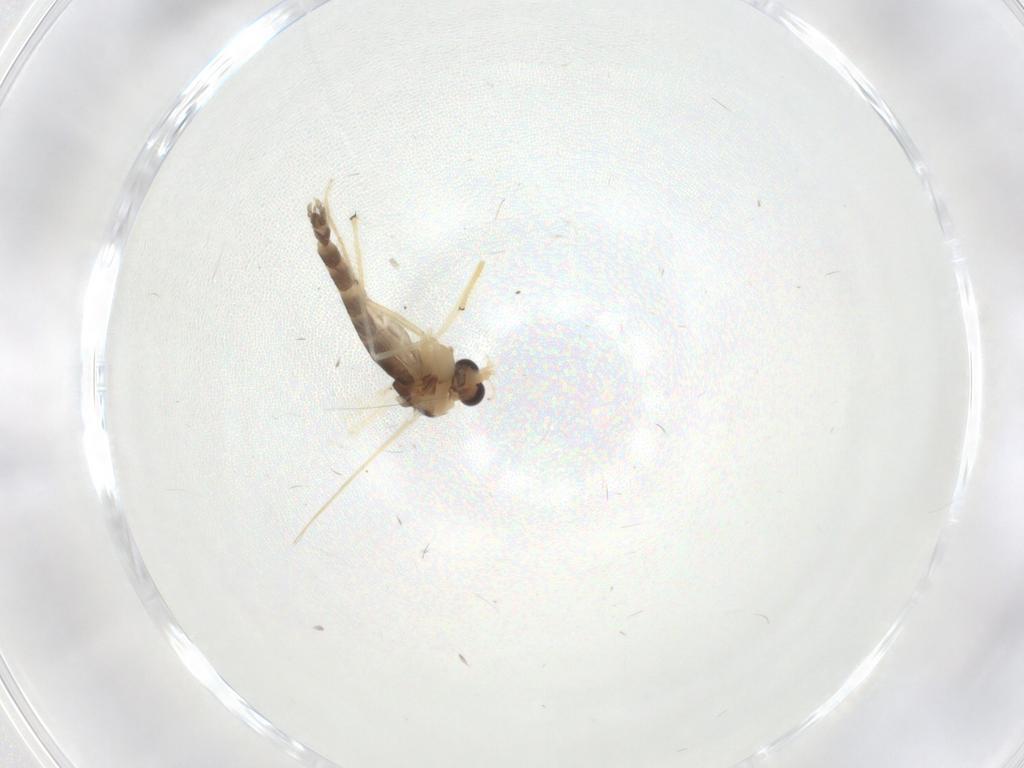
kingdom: Animalia
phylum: Arthropoda
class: Insecta
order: Diptera
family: Chironomidae
